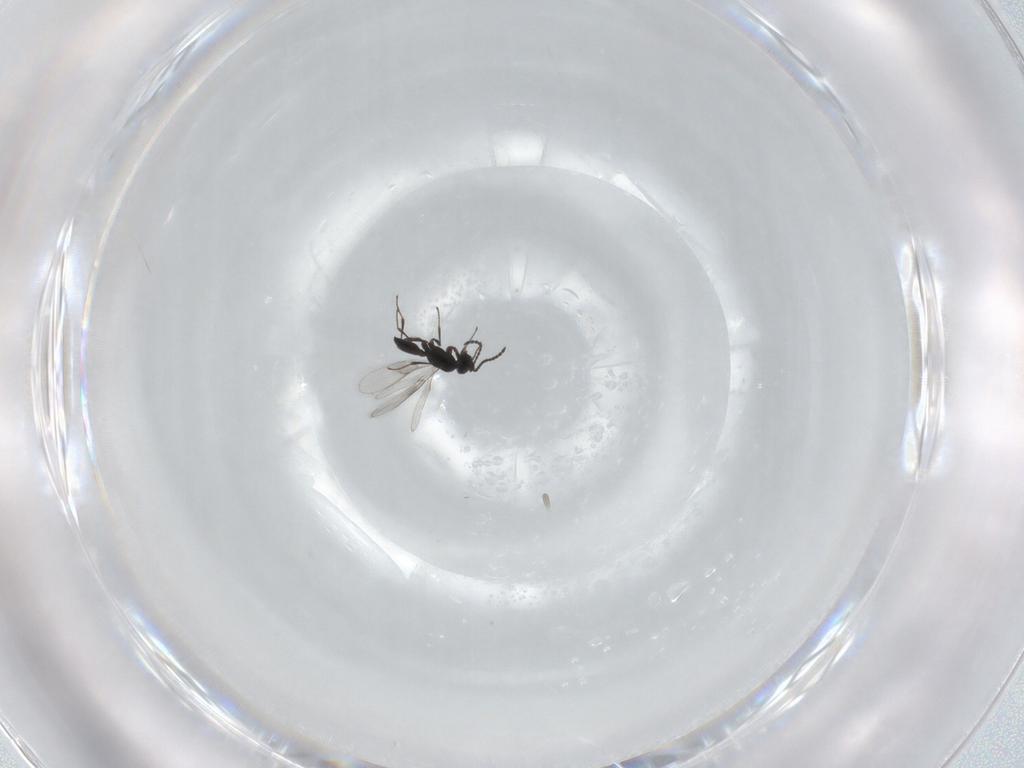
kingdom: Animalia
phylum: Arthropoda
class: Insecta
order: Hymenoptera
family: Scelionidae
